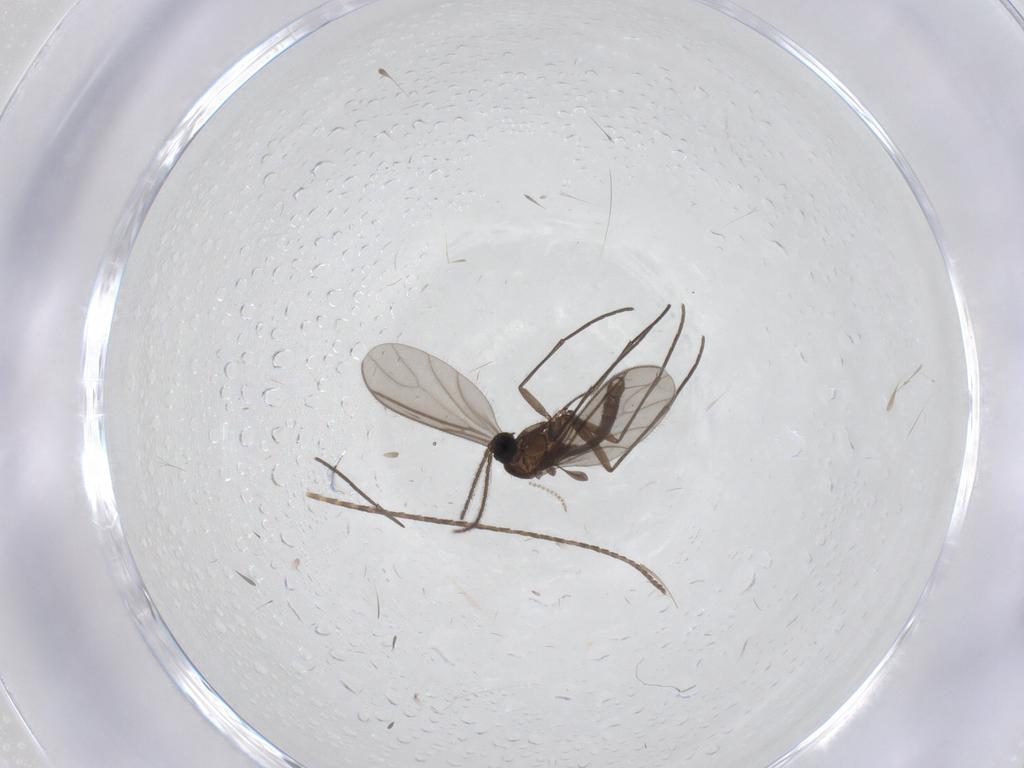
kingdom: Animalia
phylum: Arthropoda
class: Insecta
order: Diptera
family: Sciaridae
